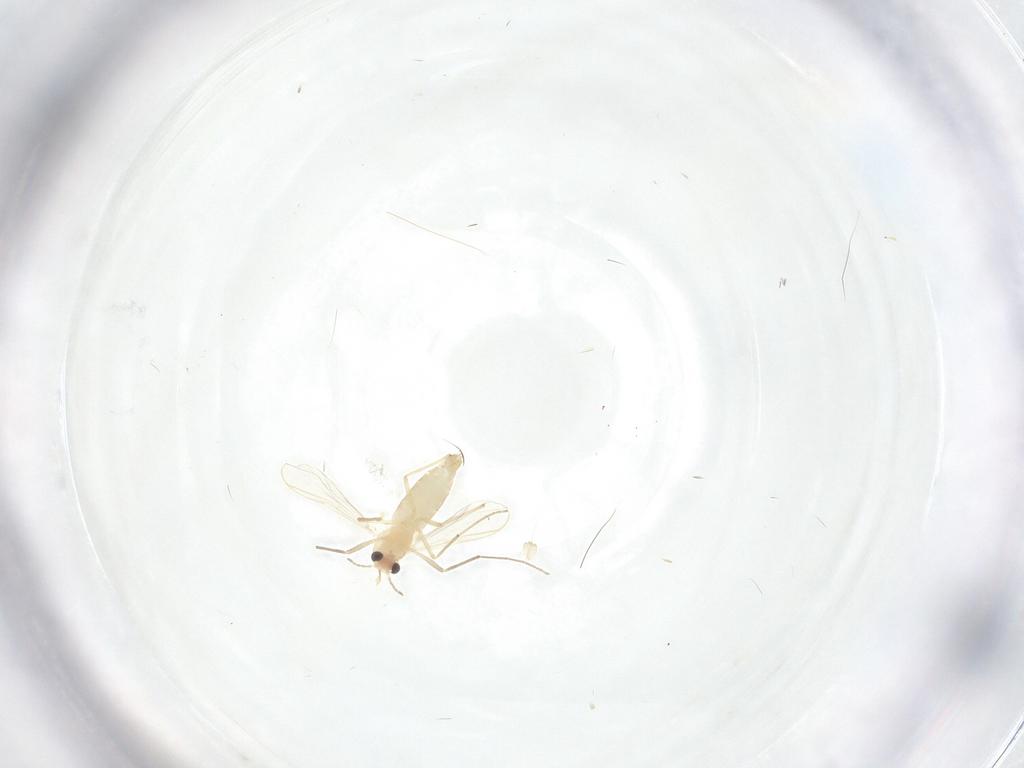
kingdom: Animalia
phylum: Arthropoda
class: Insecta
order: Diptera
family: Chironomidae
